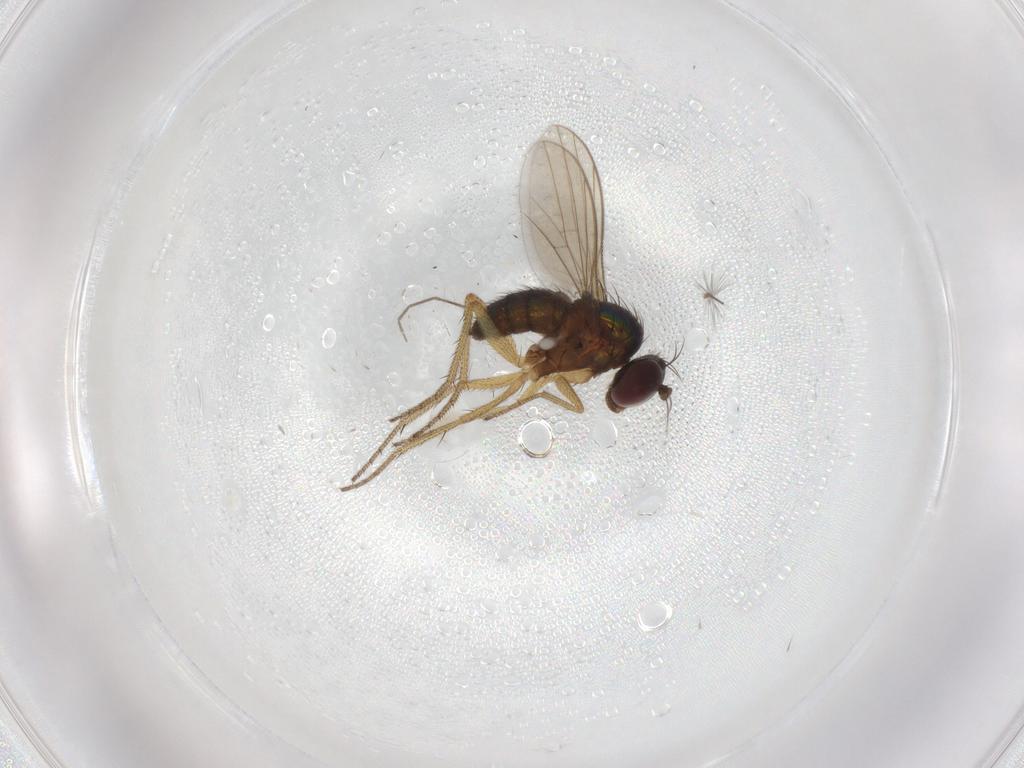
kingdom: Animalia
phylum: Arthropoda
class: Insecta
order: Diptera
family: Chironomidae
